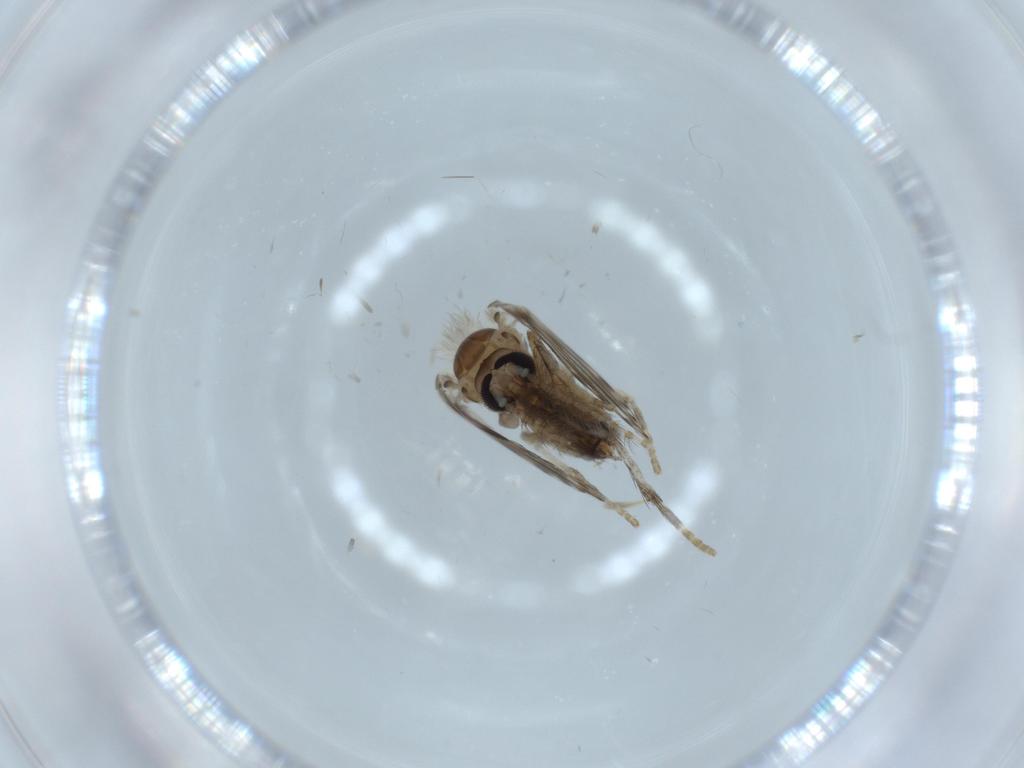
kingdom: Animalia
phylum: Arthropoda
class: Insecta
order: Diptera
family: Psychodidae
